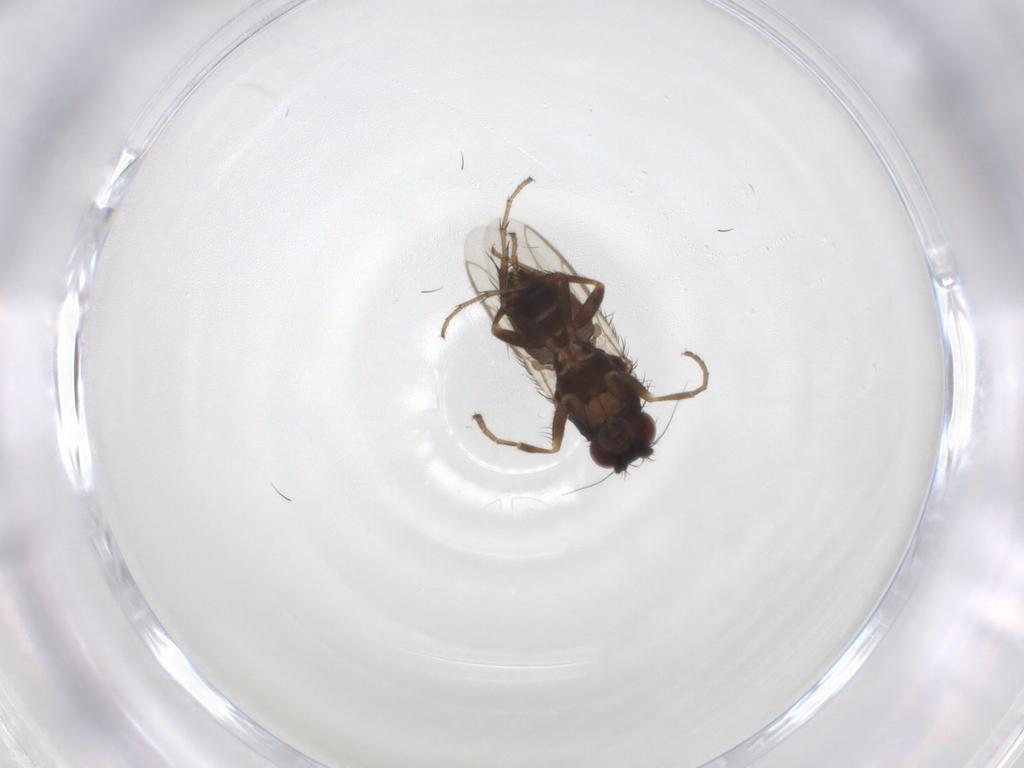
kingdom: Animalia
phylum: Arthropoda
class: Insecta
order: Diptera
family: Sphaeroceridae
